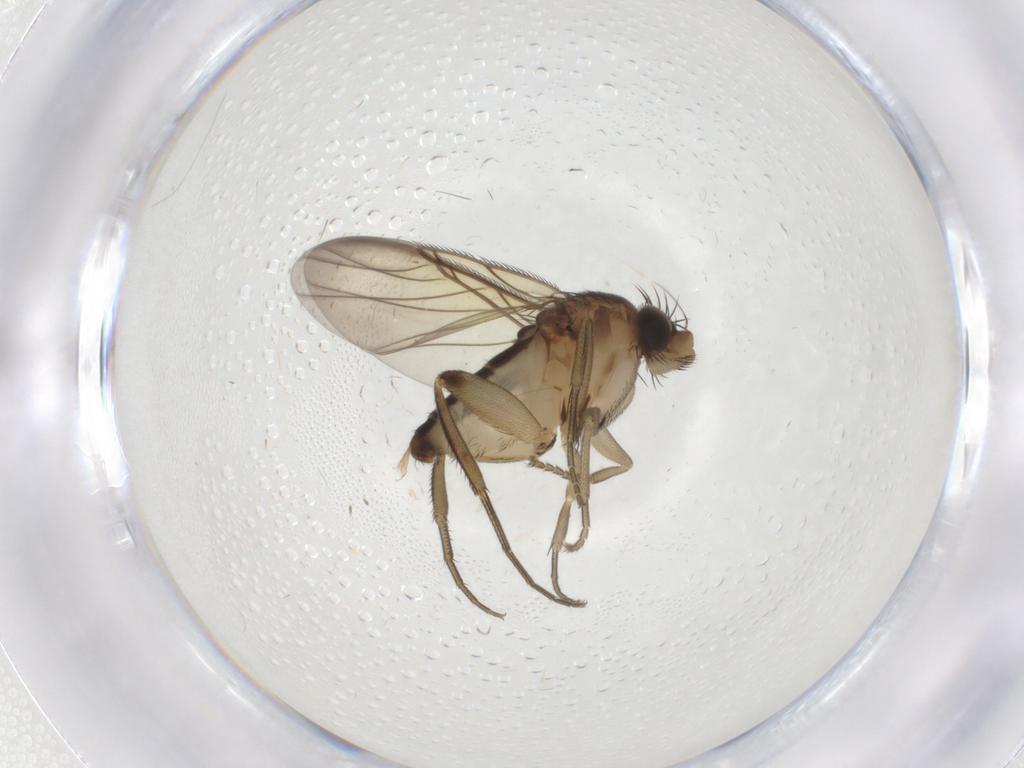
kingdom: Animalia
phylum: Arthropoda
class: Insecta
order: Diptera
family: Phoridae
